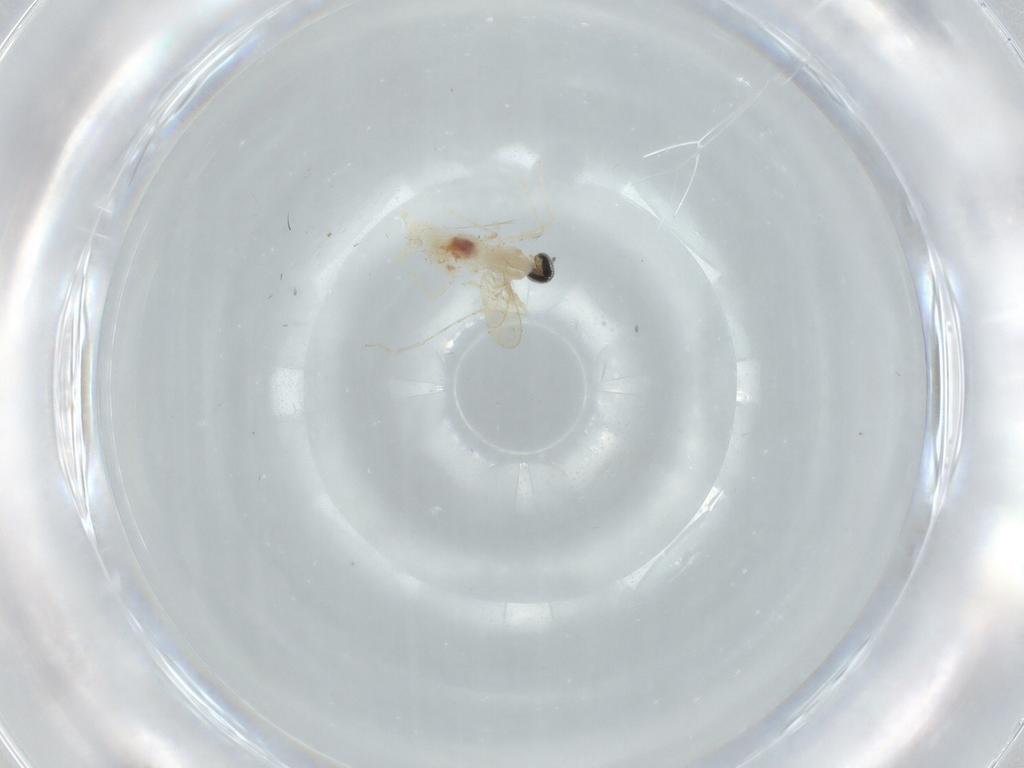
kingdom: Animalia
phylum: Arthropoda
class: Insecta
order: Diptera
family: Cecidomyiidae
